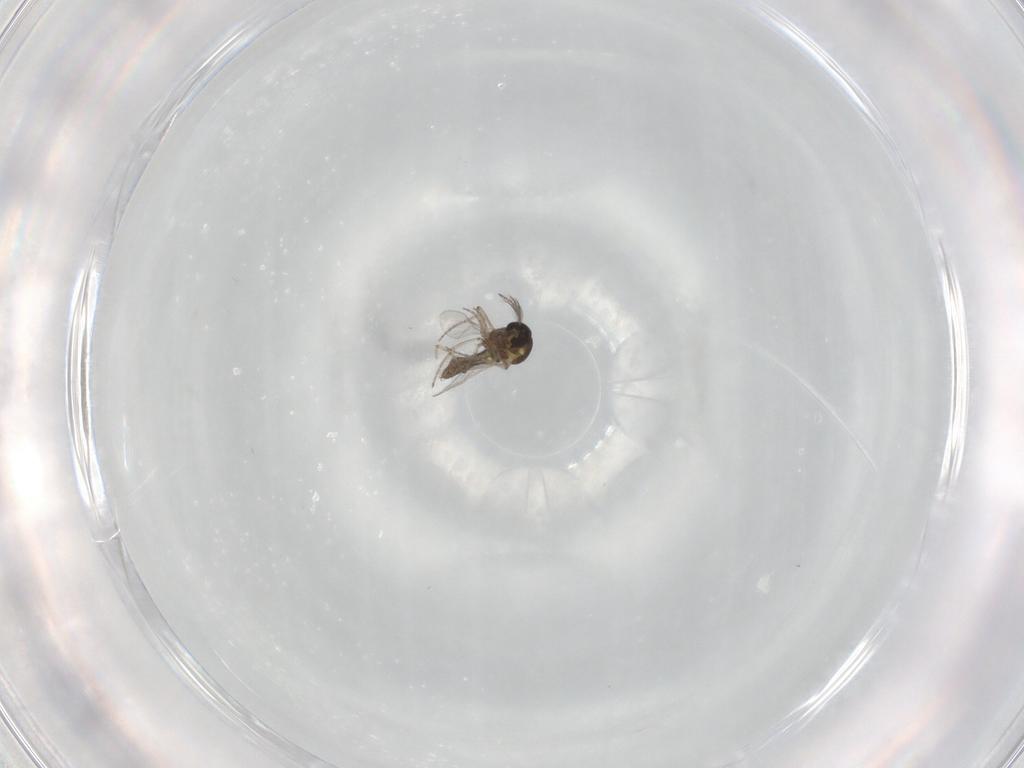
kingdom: Animalia
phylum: Arthropoda
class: Insecta
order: Diptera
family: Ceratopogonidae
